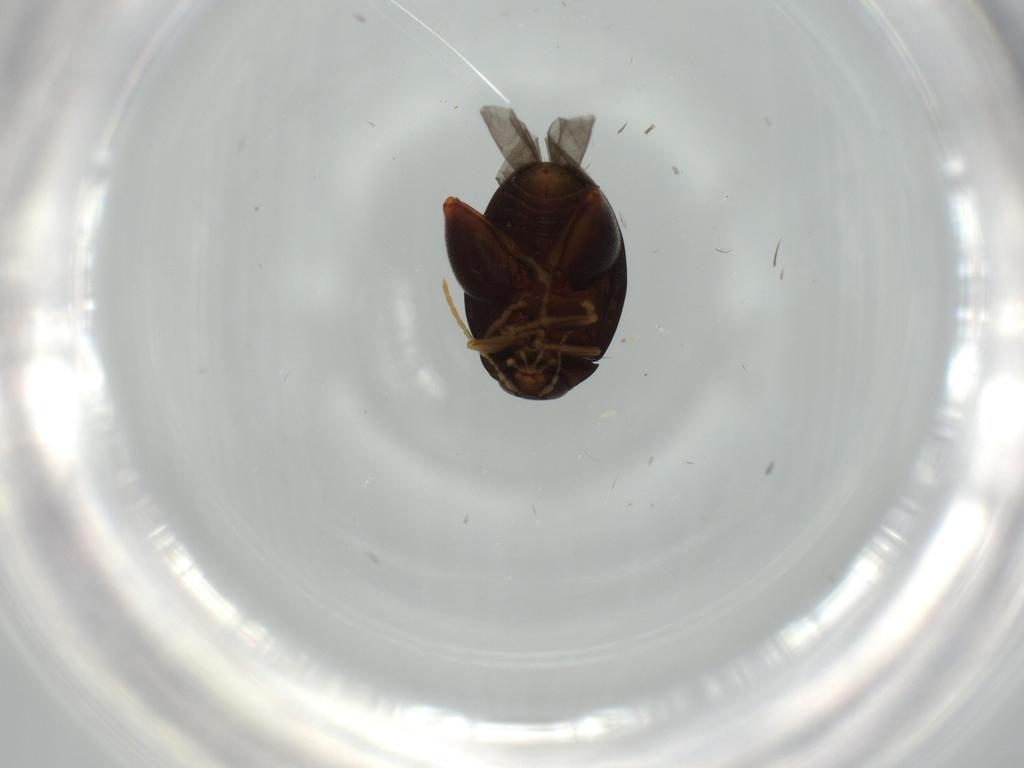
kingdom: Animalia
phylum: Arthropoda
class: Insecta
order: Coleoptera
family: Chrysomelidae
